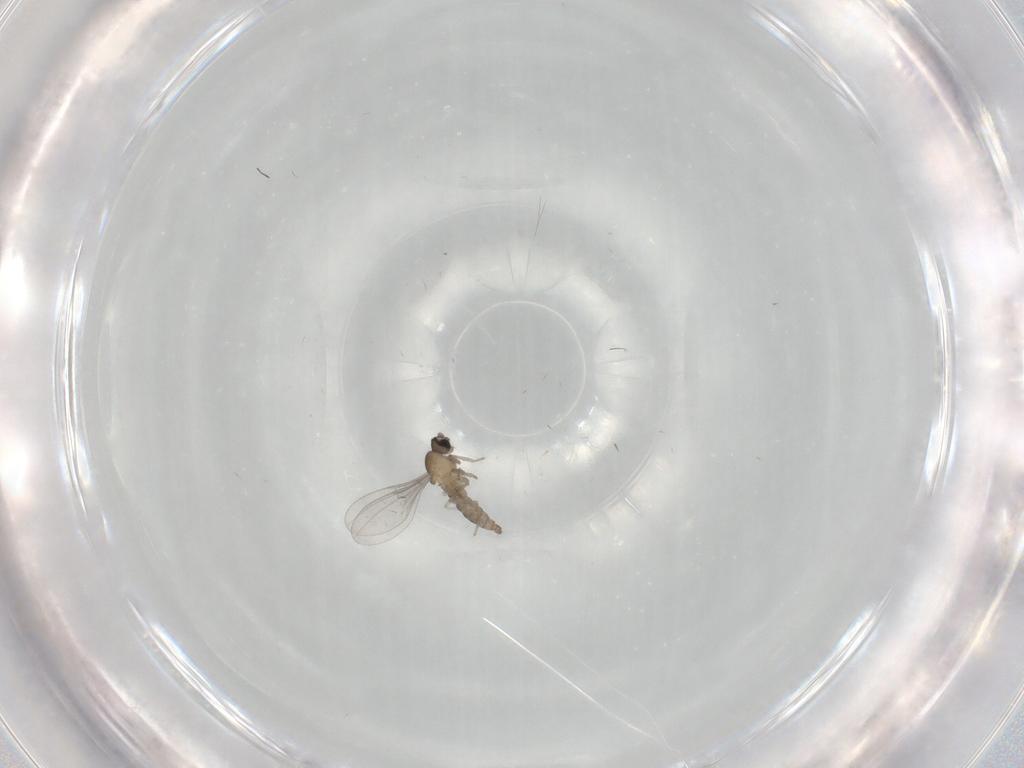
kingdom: Animalia
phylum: Arthropoda
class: Insecta
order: Diptera
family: Cecidomyiidae
